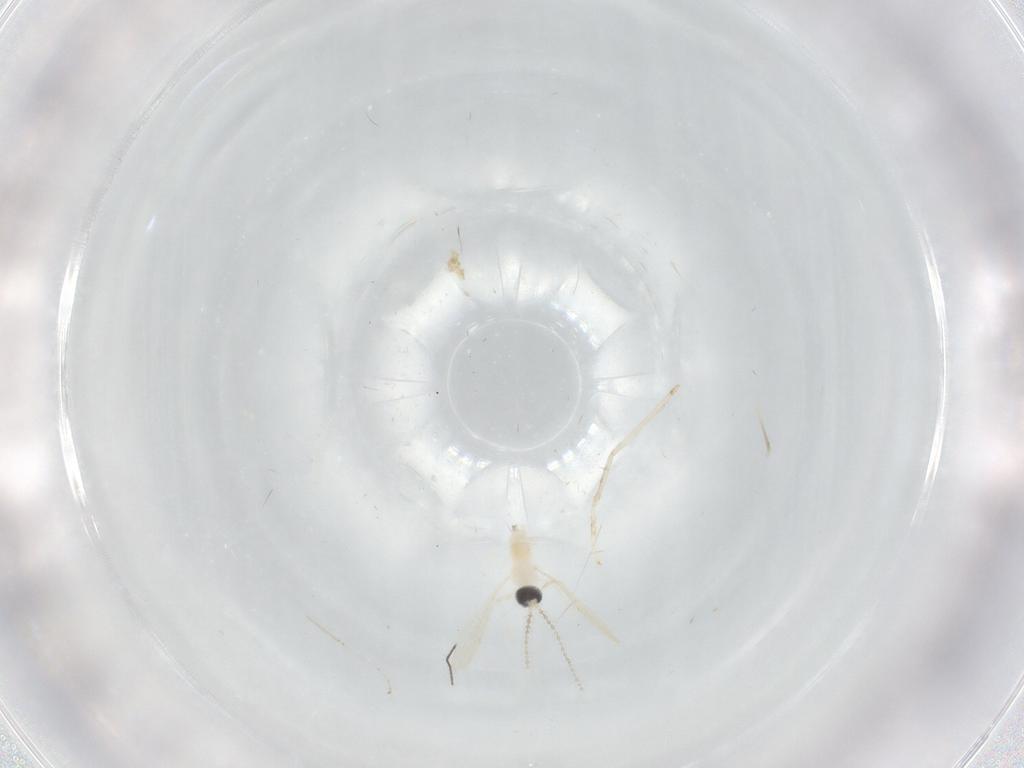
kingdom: Animalia
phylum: Arthropoda
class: Insecta
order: Diptera
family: Cecidomyiidae
